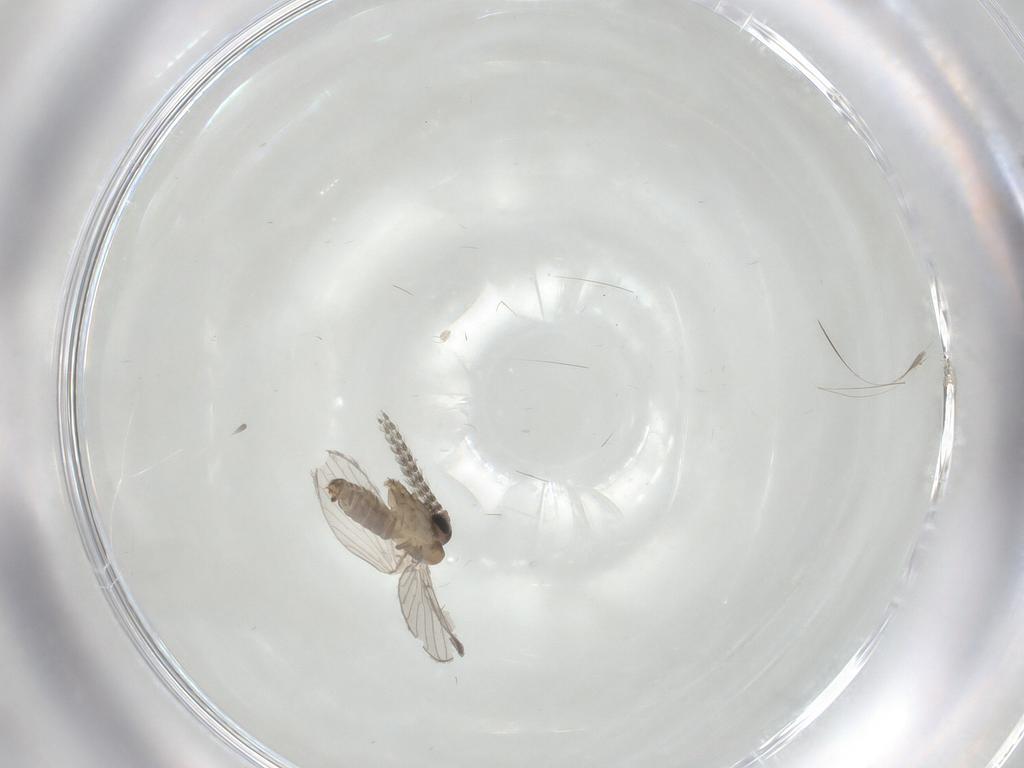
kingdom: Animalia
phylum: Arthropoda
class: Insecta
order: Diptera
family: Psychodidae
